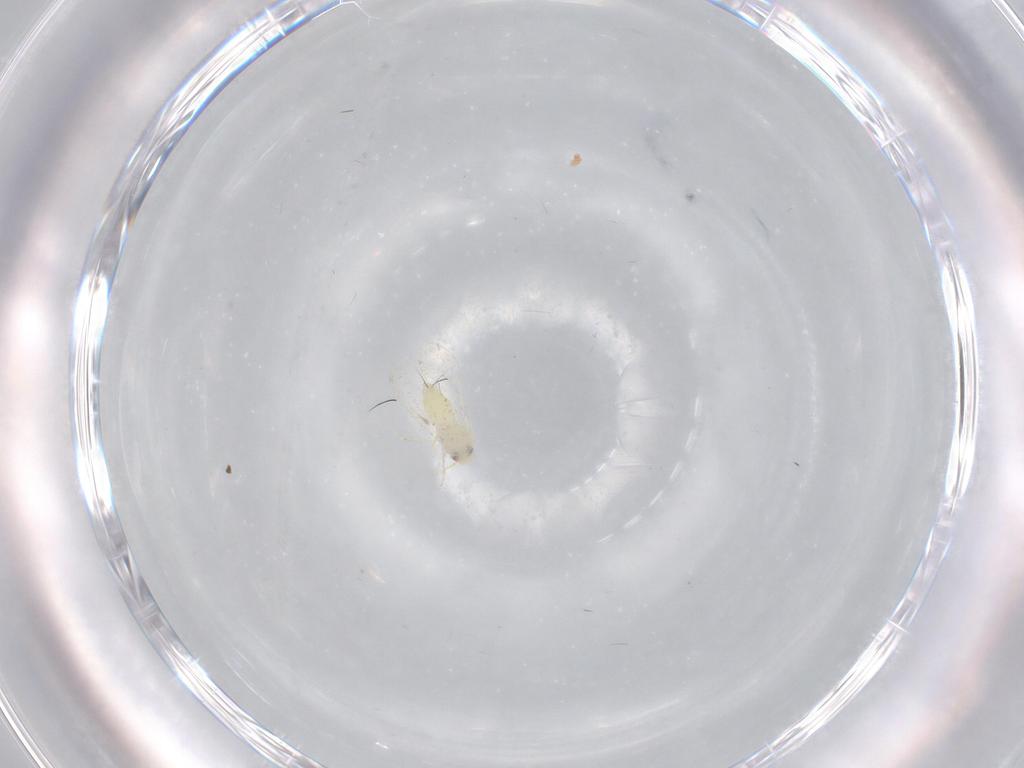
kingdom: Animalia
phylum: Arthropoda
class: Insecta
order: Hemiptera
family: Aleyrodidae
